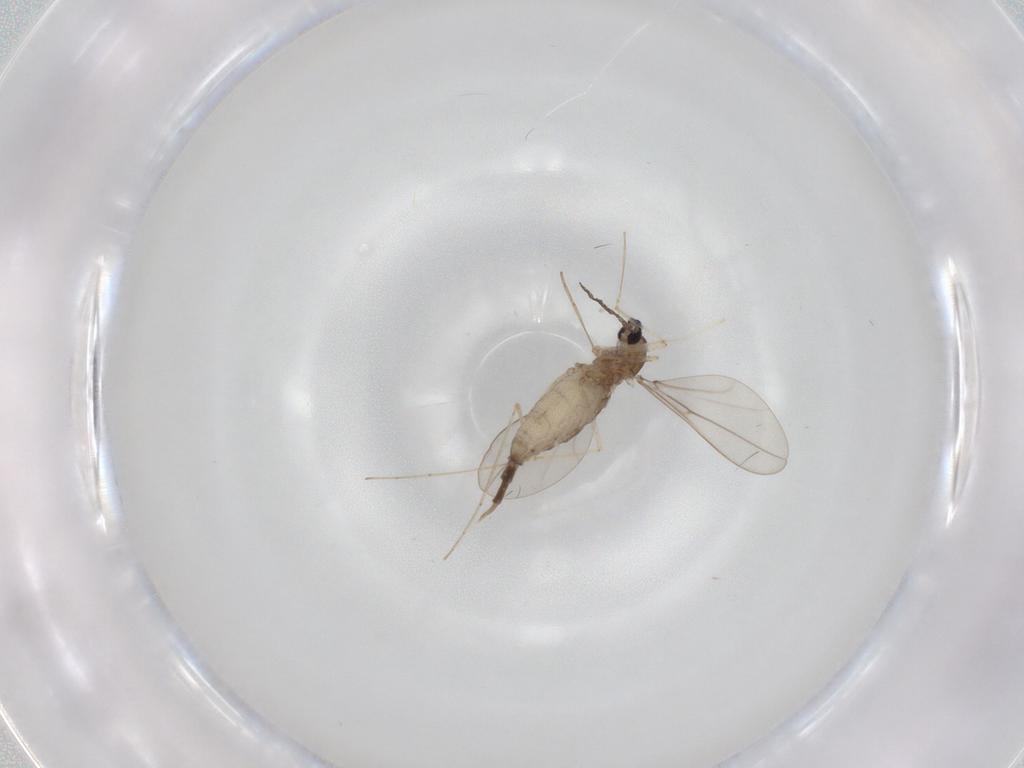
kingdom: Animalia
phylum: Arthropoda
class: Insecta
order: Diptera
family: Cecidomyiidae
